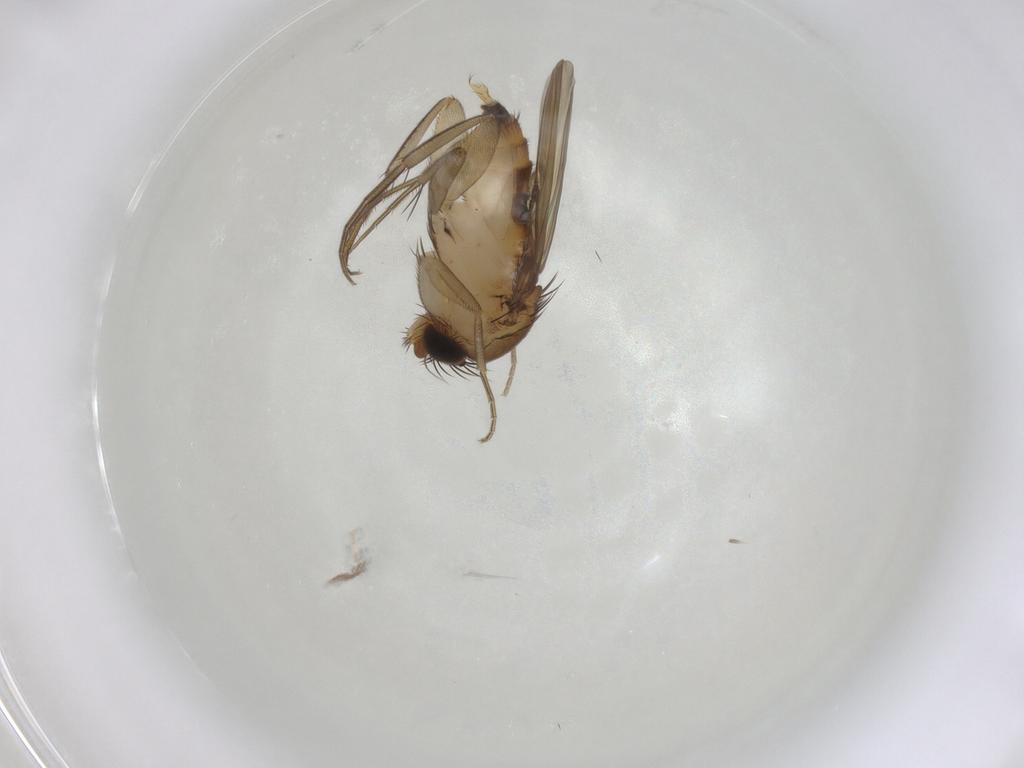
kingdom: Animalia
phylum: Arthropoda
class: Insecta
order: Diptera
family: Phoridae
